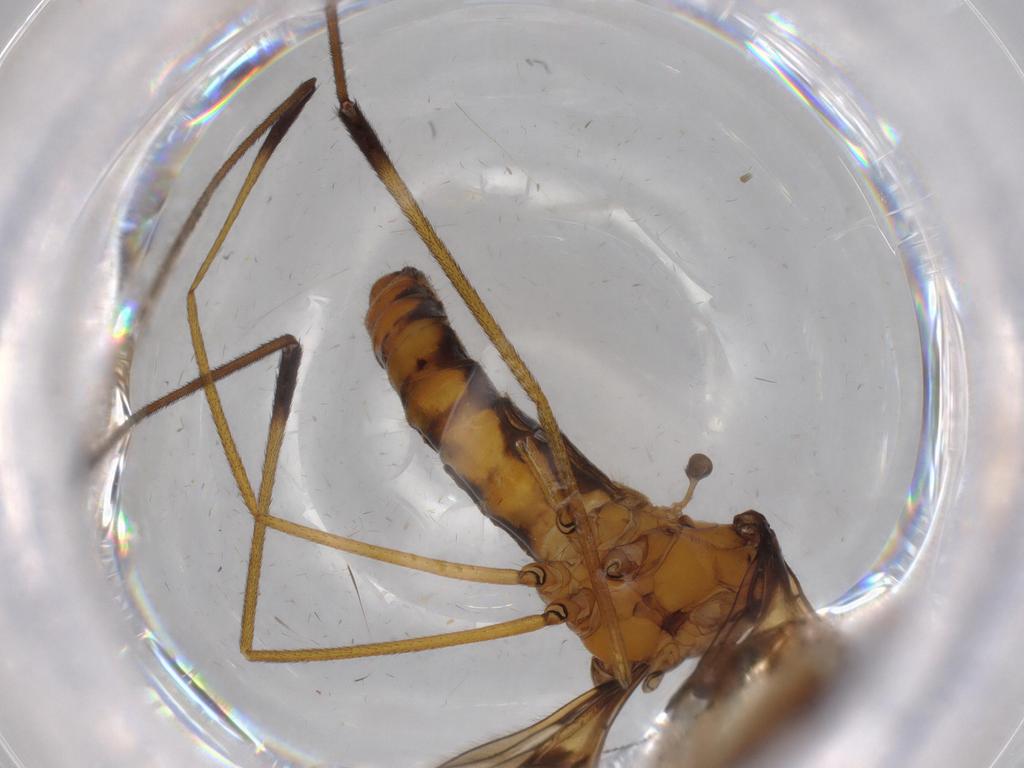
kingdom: Animalia
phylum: Arthropoda
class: Insecta
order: Diptera
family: Cecidomyiidae
